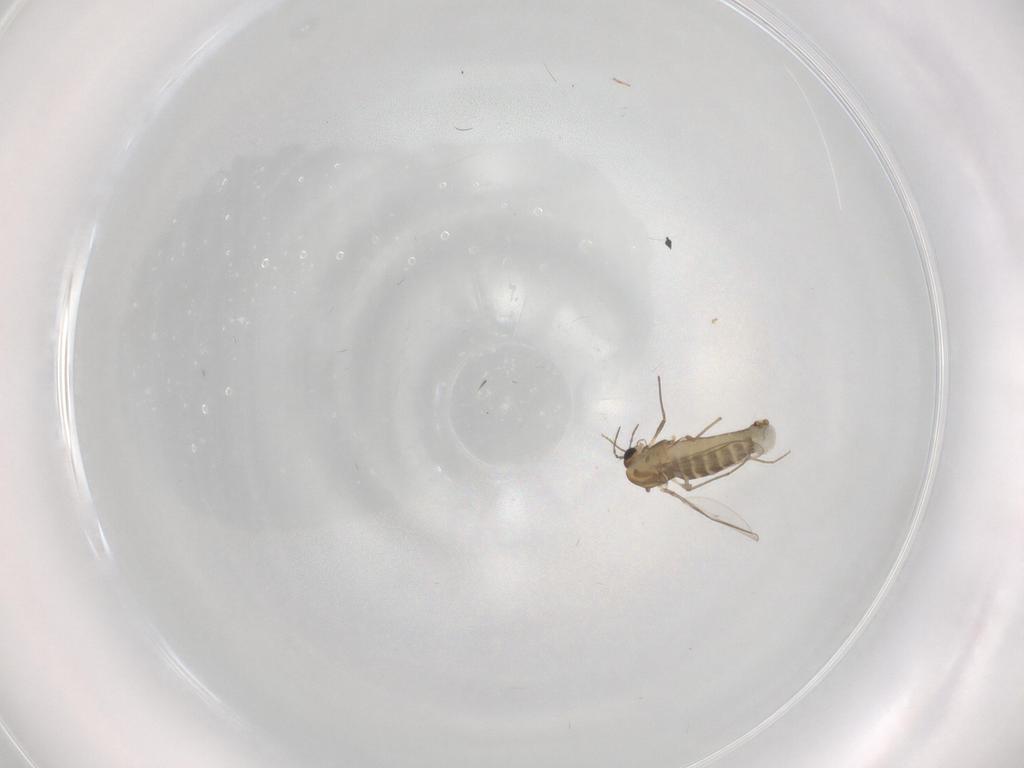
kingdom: Animalia
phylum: Arthropoda
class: Insecta
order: Diptera
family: Chironomidae
